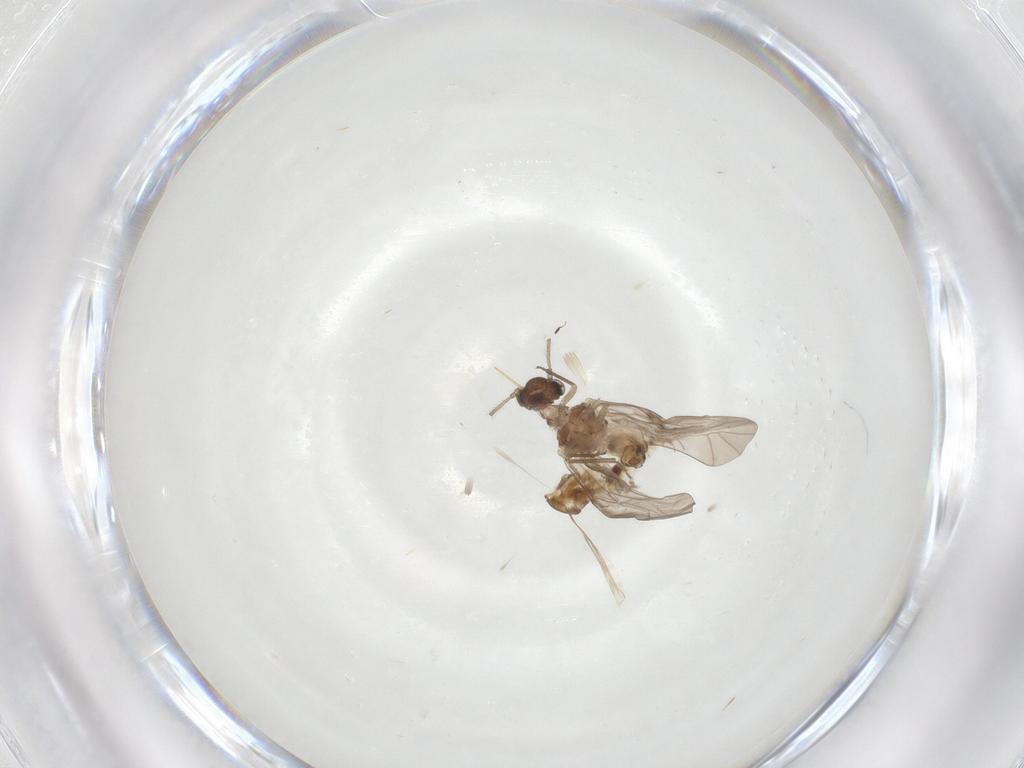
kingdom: Animalia
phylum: Arthropoda
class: Insecta
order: Psocodea
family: Peripsocidae
